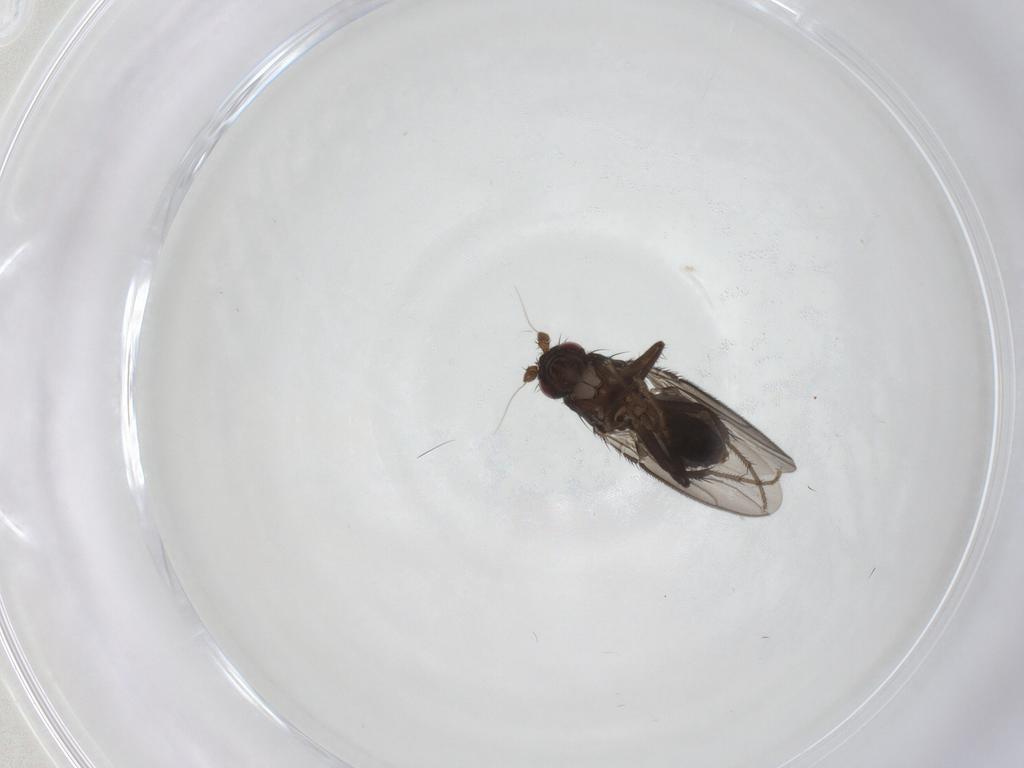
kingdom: Animalia
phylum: Arthropoda
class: Insecta
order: Diptera
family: Sphaeroceridae
